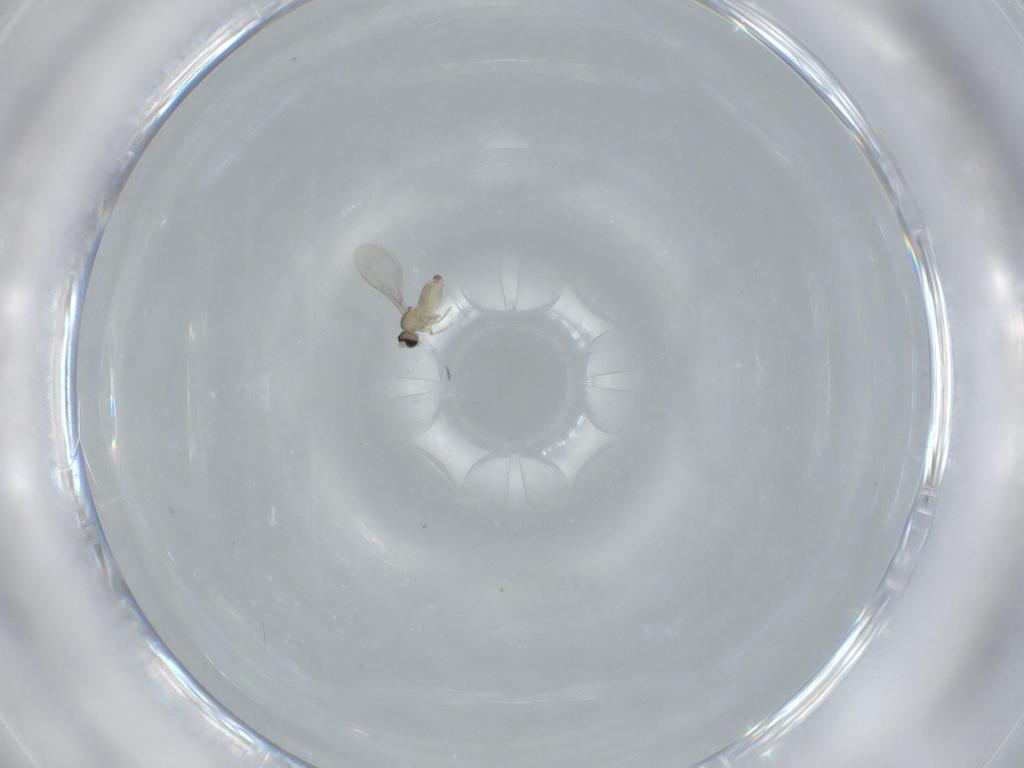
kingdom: Animalia
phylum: Arthropoda
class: Insecta
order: Diptera
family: Cecidomyiidae
